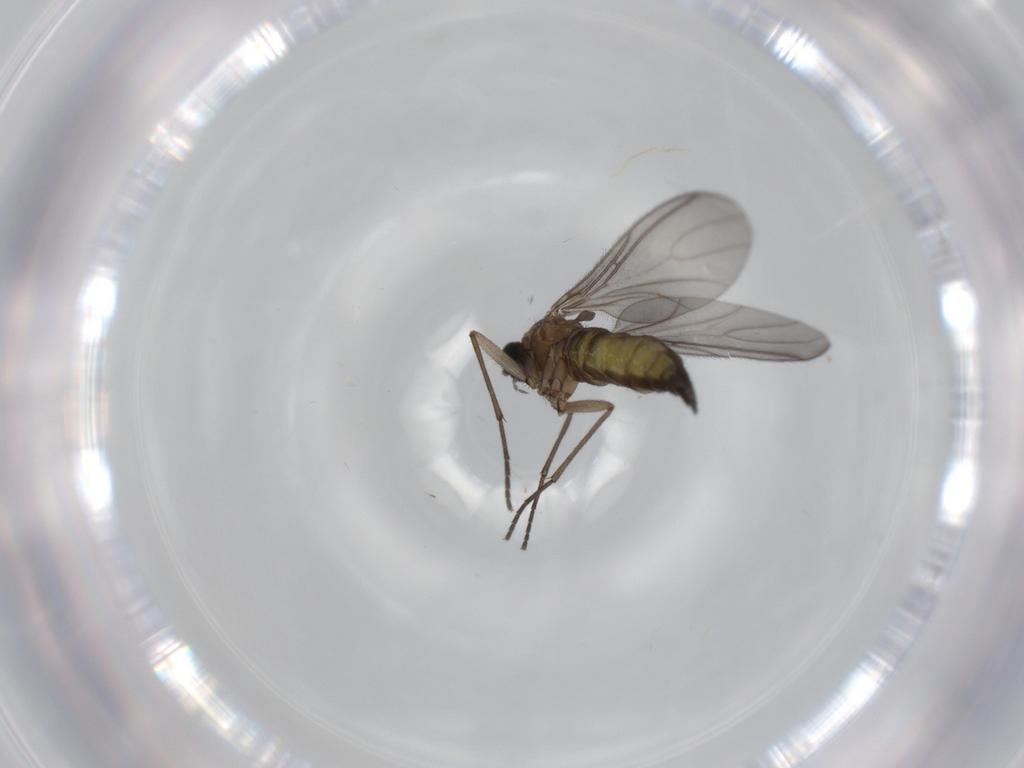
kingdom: Animalia
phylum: Arthropoda
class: Insecta
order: Diptera
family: Sciaridae
